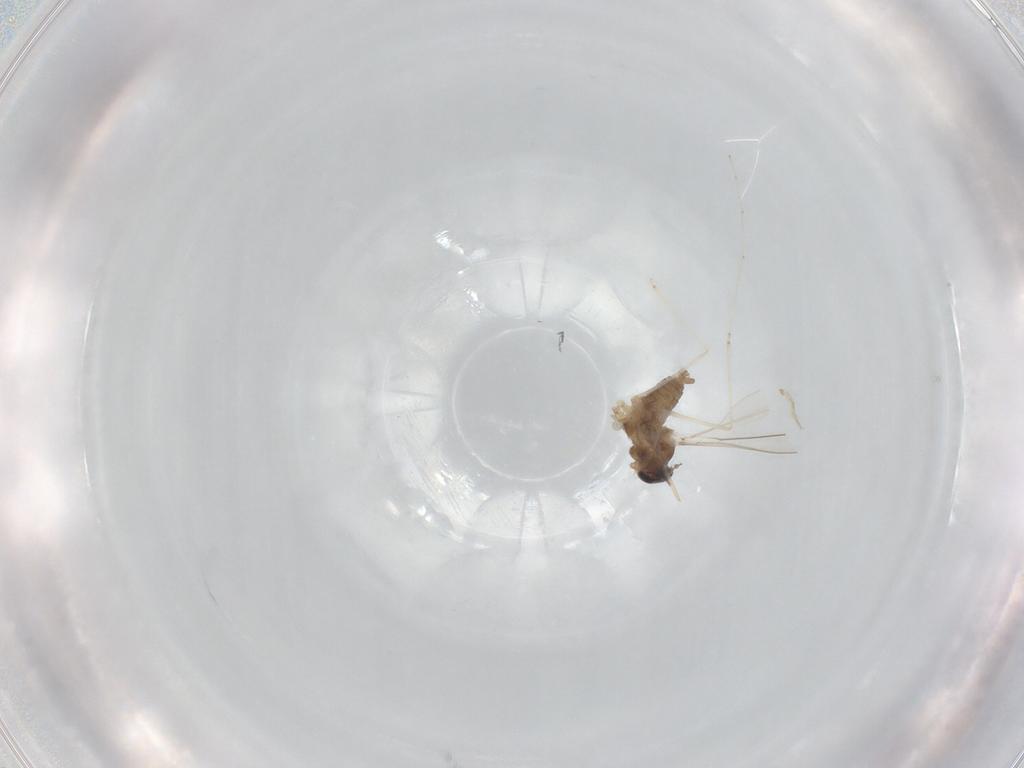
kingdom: Animalia
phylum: Arthropoda
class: Insecta
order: Diptera
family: Cecidomyiidae
